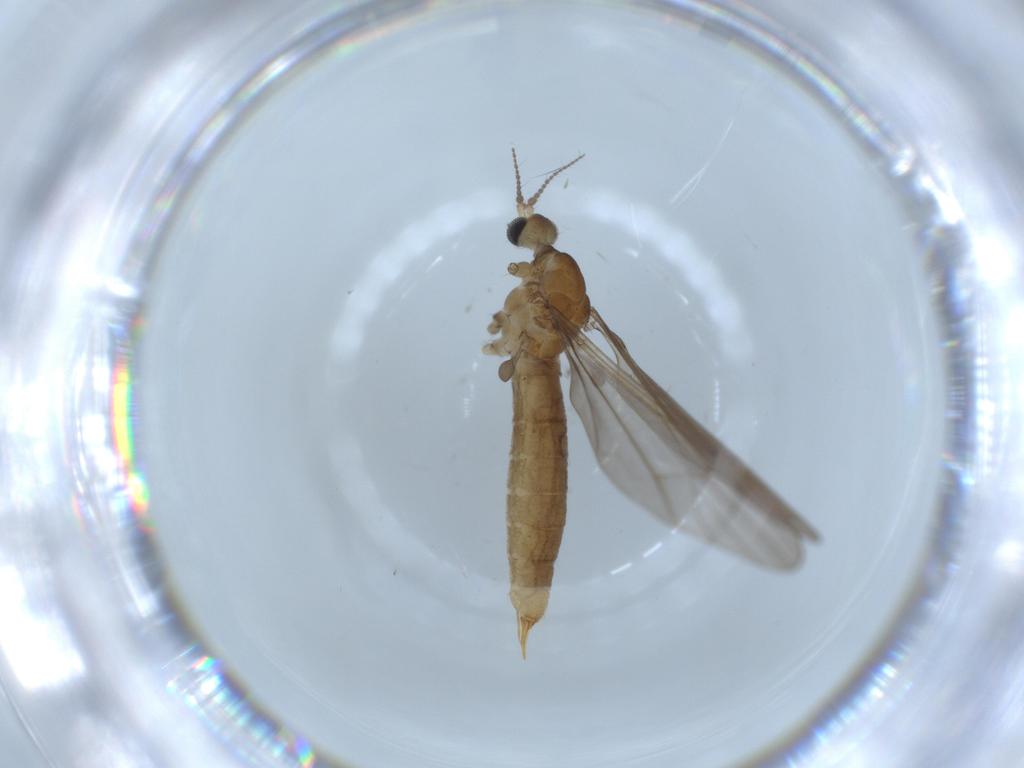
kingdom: Animalia
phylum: Arthropoda
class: Insecta
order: Diptera
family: Limoniidae
